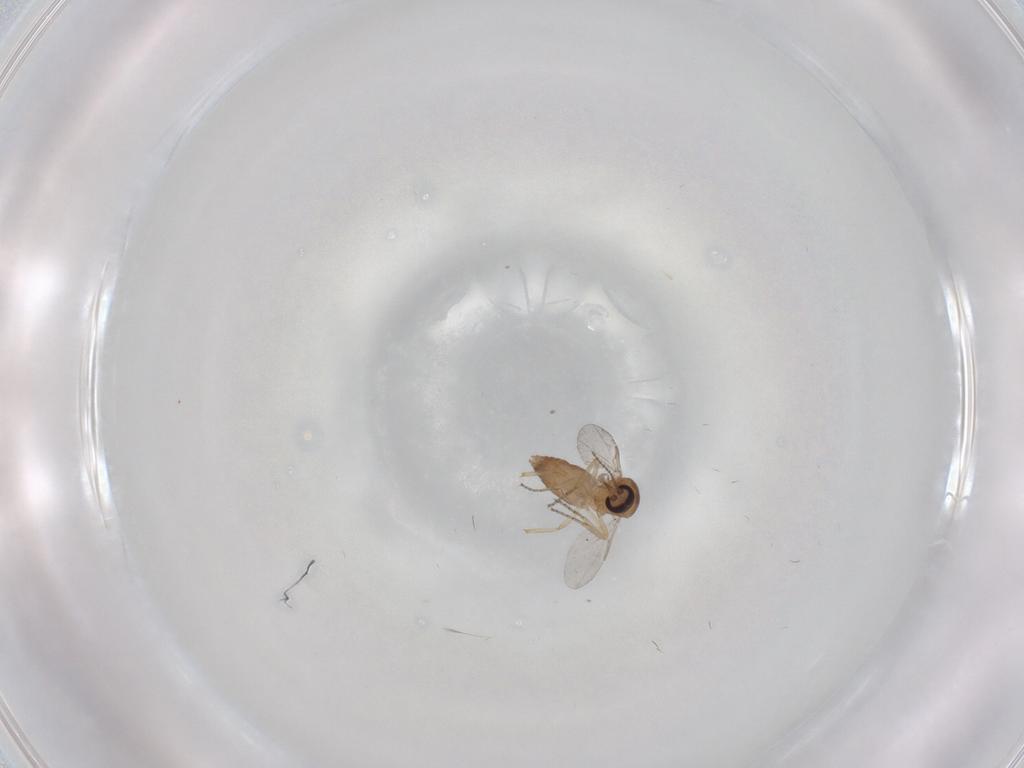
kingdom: Animalia
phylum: Arthropoda
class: Insecta
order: Diptera
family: Ceratopogonidae
